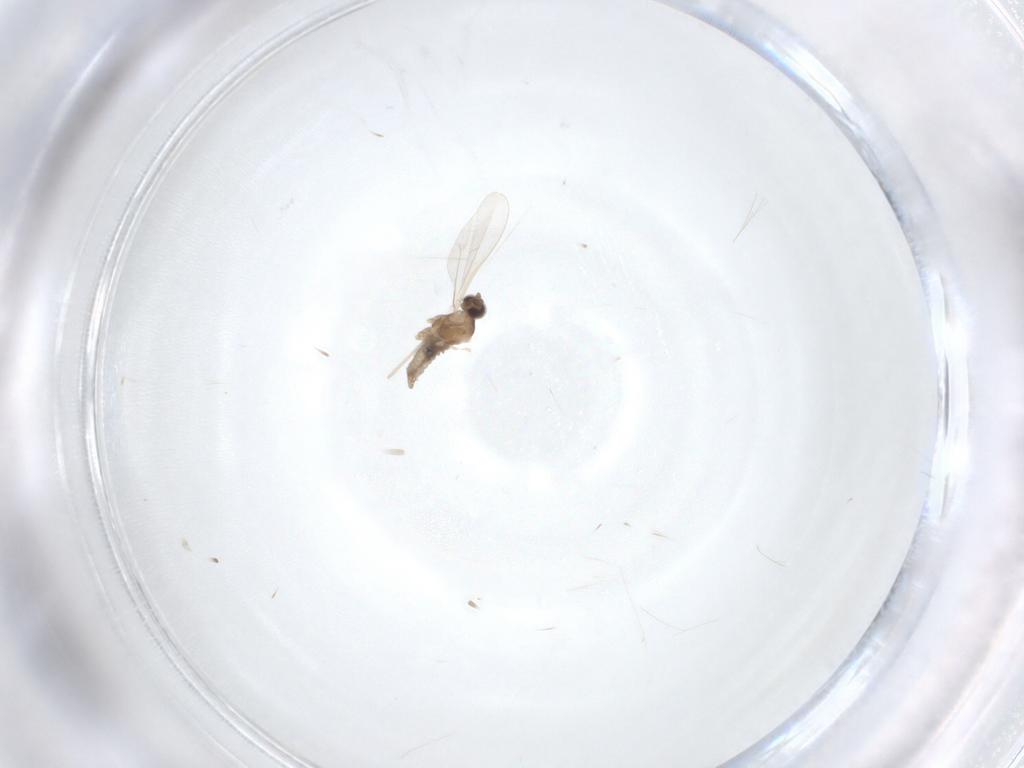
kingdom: Animalia
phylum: Arthropoda
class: Insecta
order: Diptera
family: Cecidomyiidae
